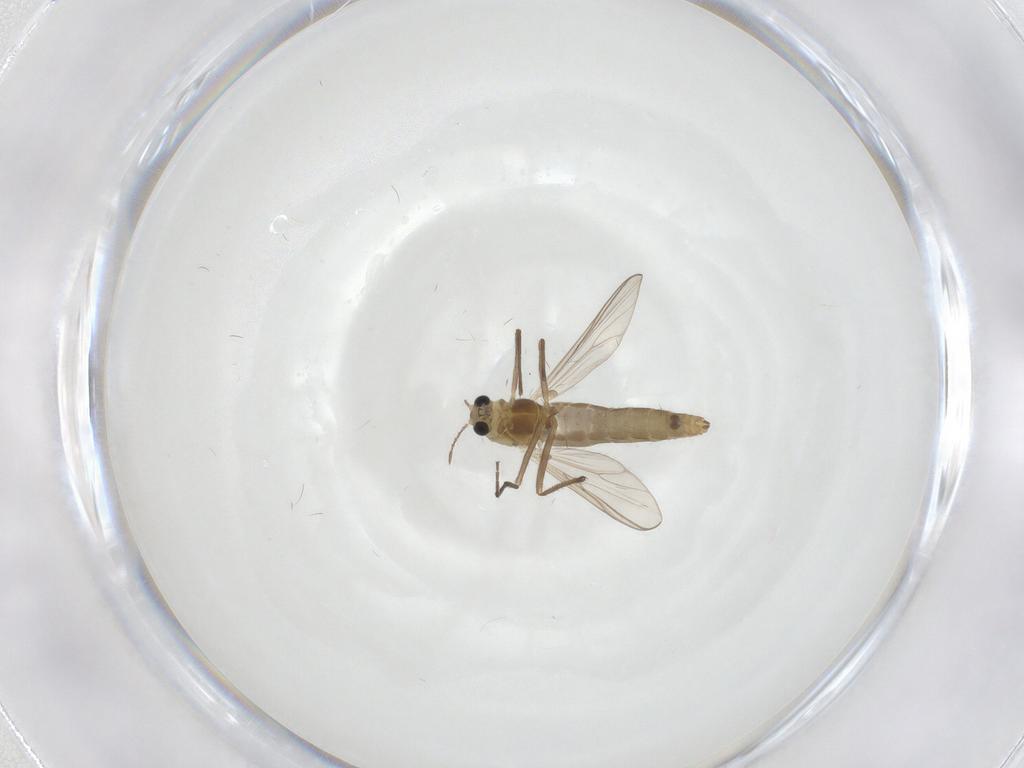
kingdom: Animalia
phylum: Arthropoda
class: Insecta
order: Diptera
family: Chironomidae
